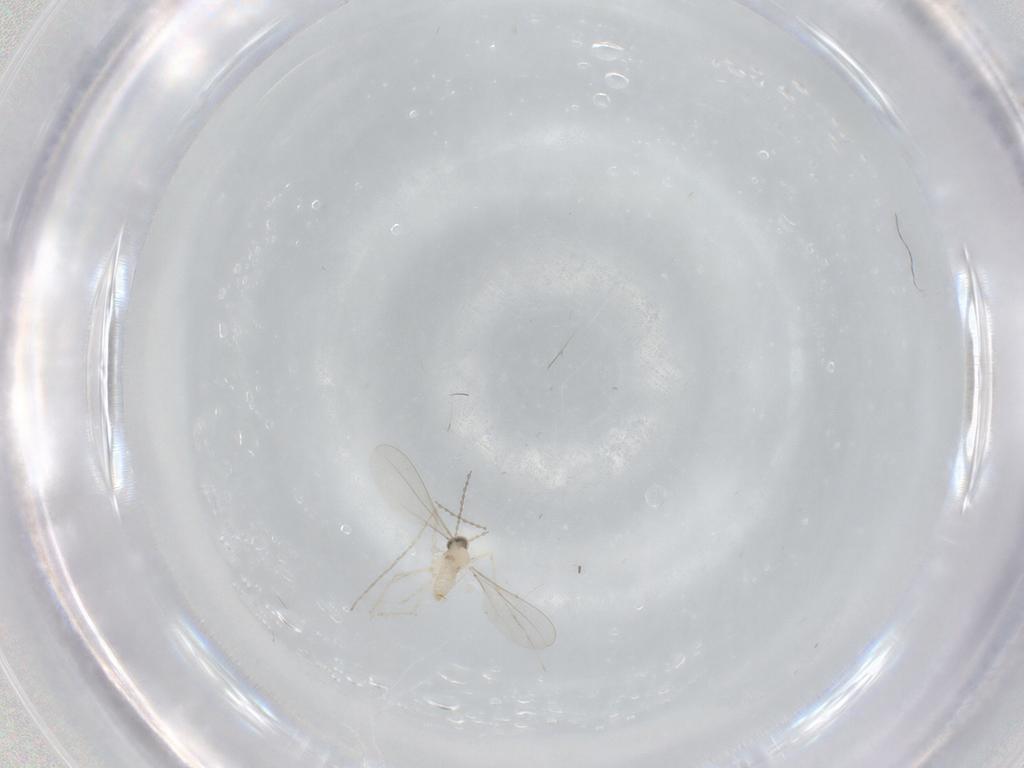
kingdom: Animalia
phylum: Arthropoda
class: Insecta
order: Diptera
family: Cecidomyiidae
